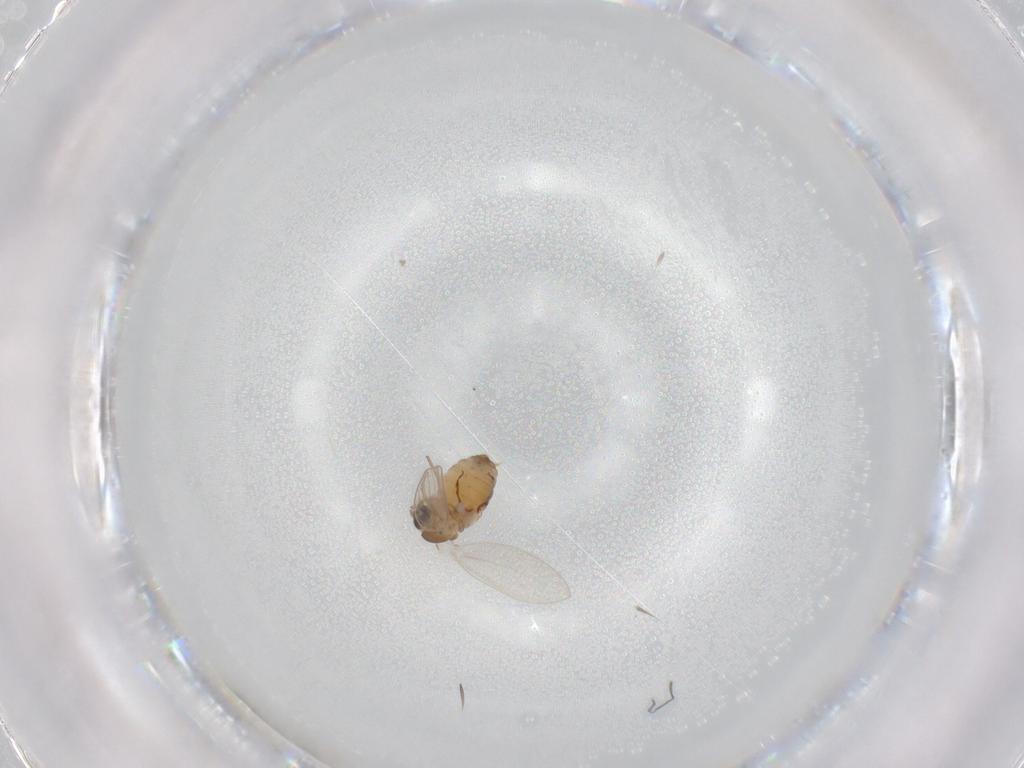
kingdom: Animalia
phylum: Arthropoda
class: Insecta
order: Diptera
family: Psychodidae
